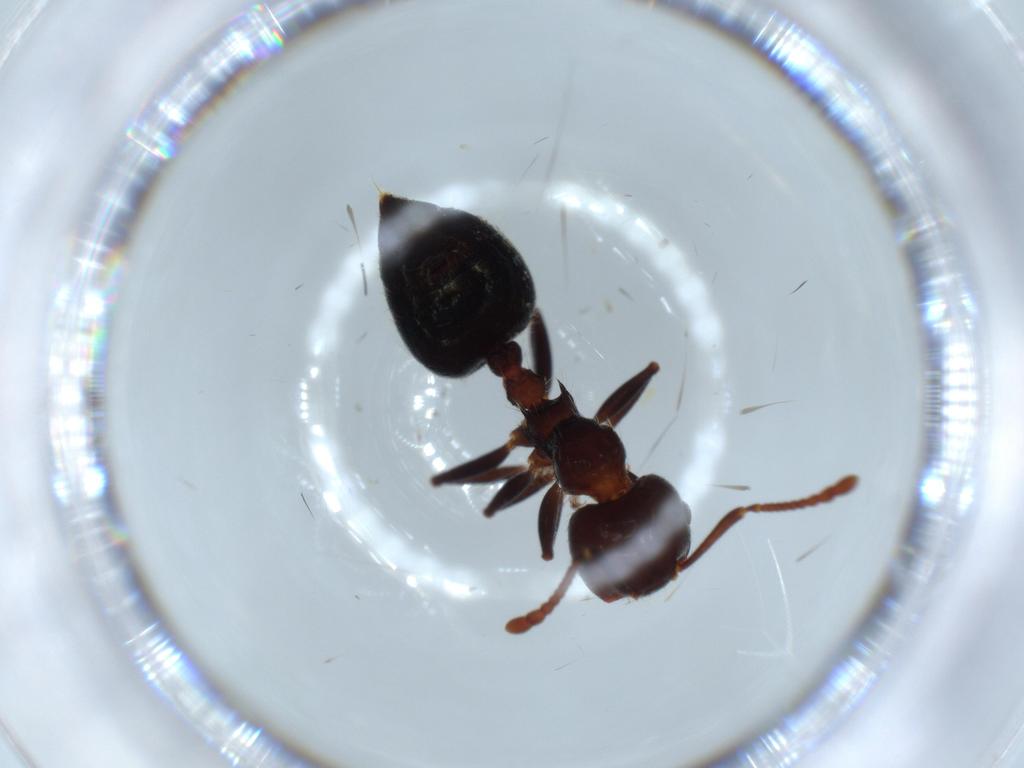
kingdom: Animalia
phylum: Arthropoda
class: Insecta
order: Hymenoptera
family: Formicidae
